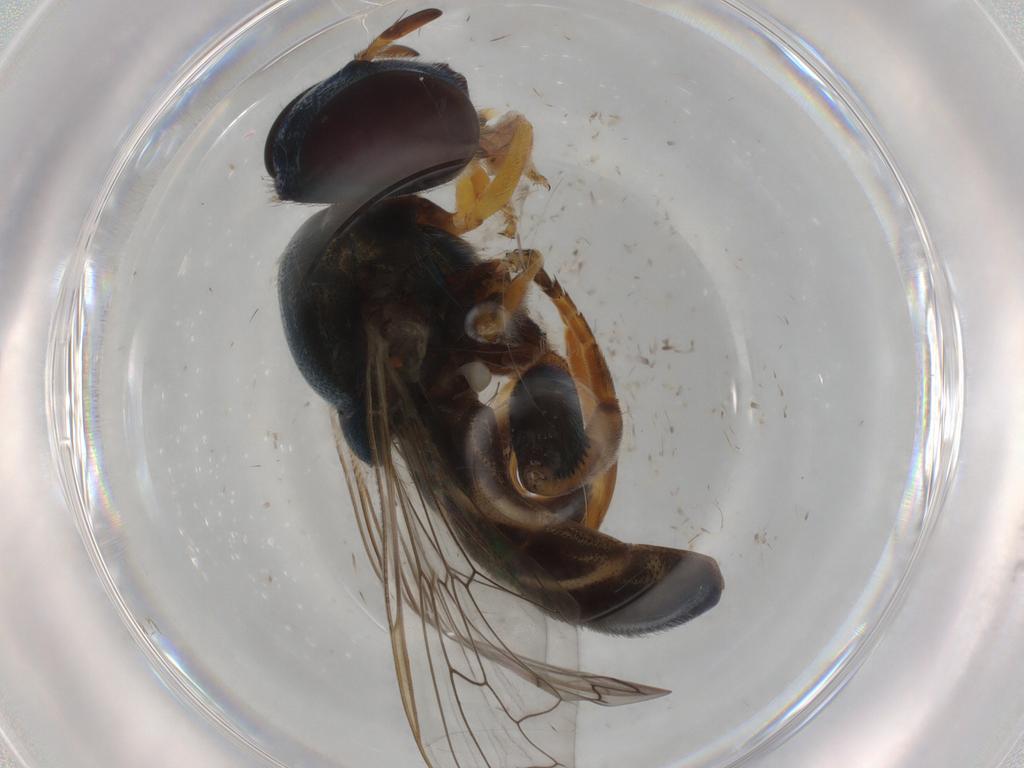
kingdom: Animalia
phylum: Arthropoda
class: Insecta
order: Diptera
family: Syrphidae
